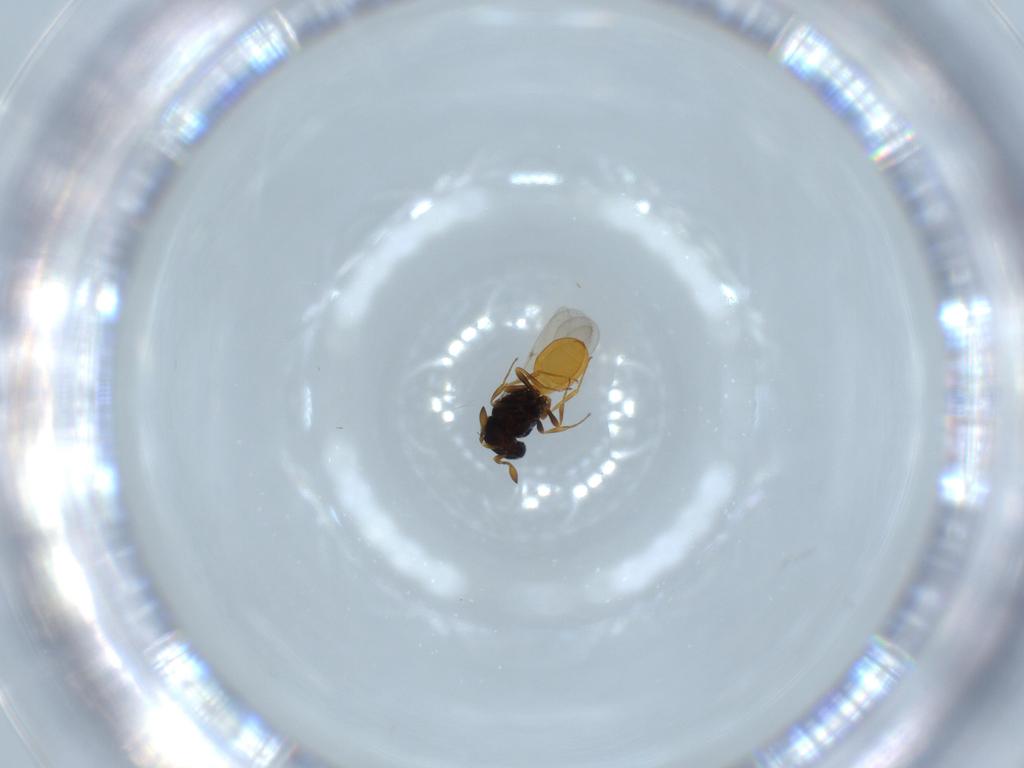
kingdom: Animalia
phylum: Arthropoda
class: Insecta
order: Hymenoptera
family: Scelionidae
